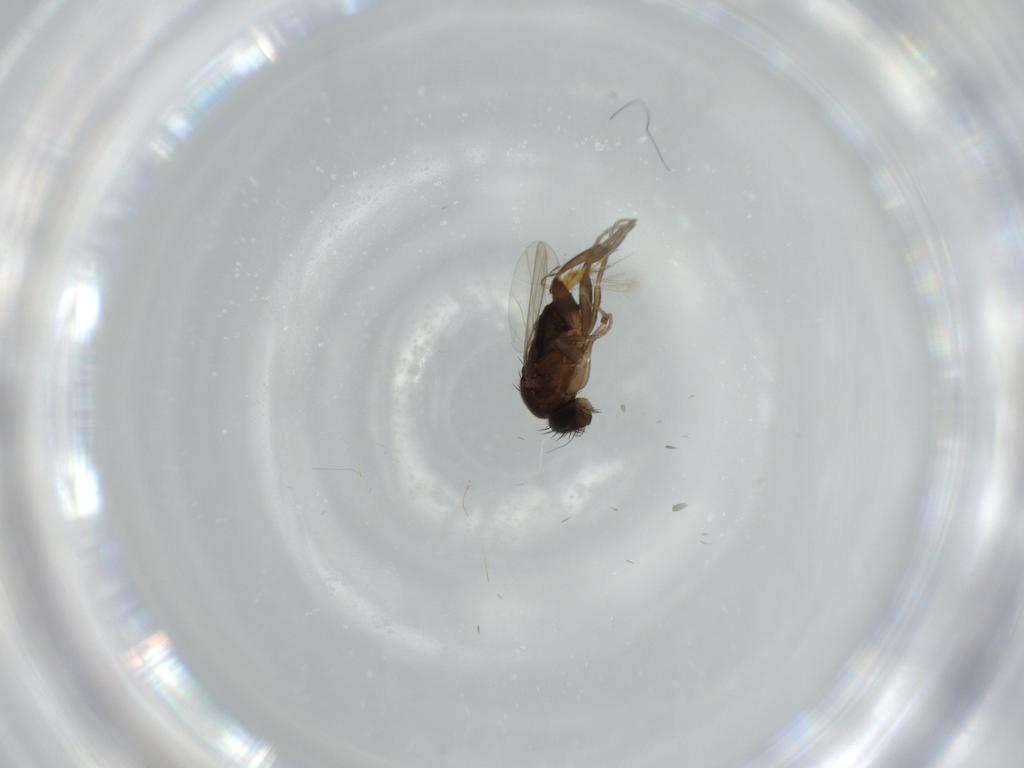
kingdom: Animalia
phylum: Arthropoda
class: Insecta
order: Diptera
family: Phoridae
